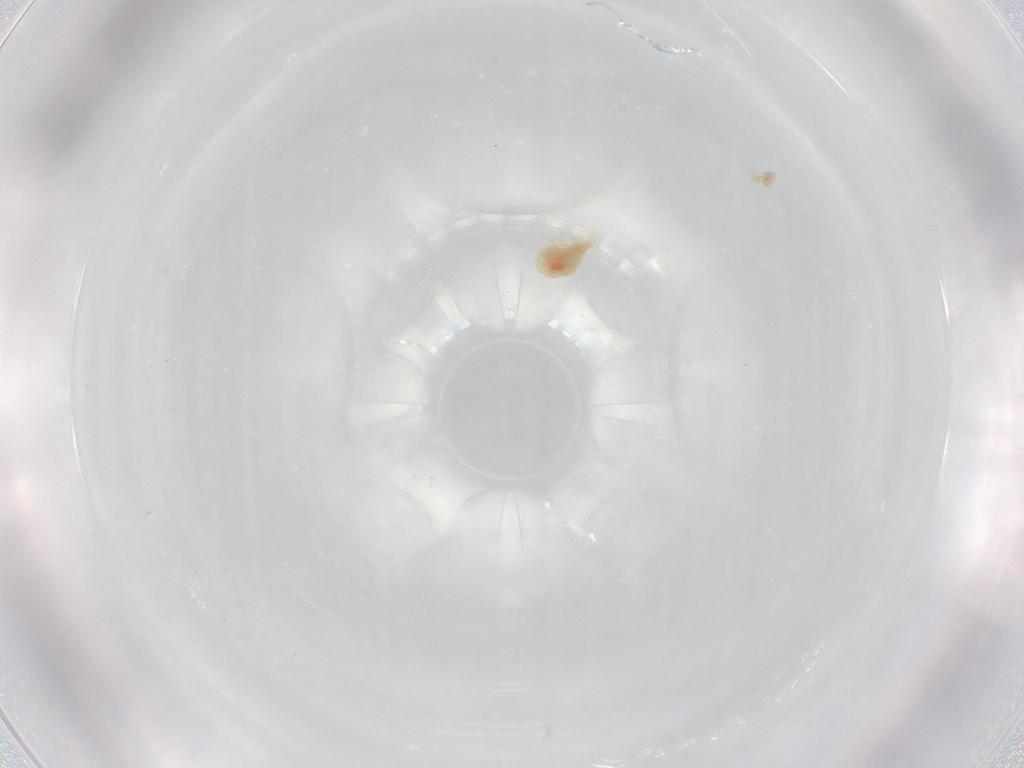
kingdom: Animalia
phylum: Arthropoda
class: Arachnida
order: Trombidiformes
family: Penthalodidae
